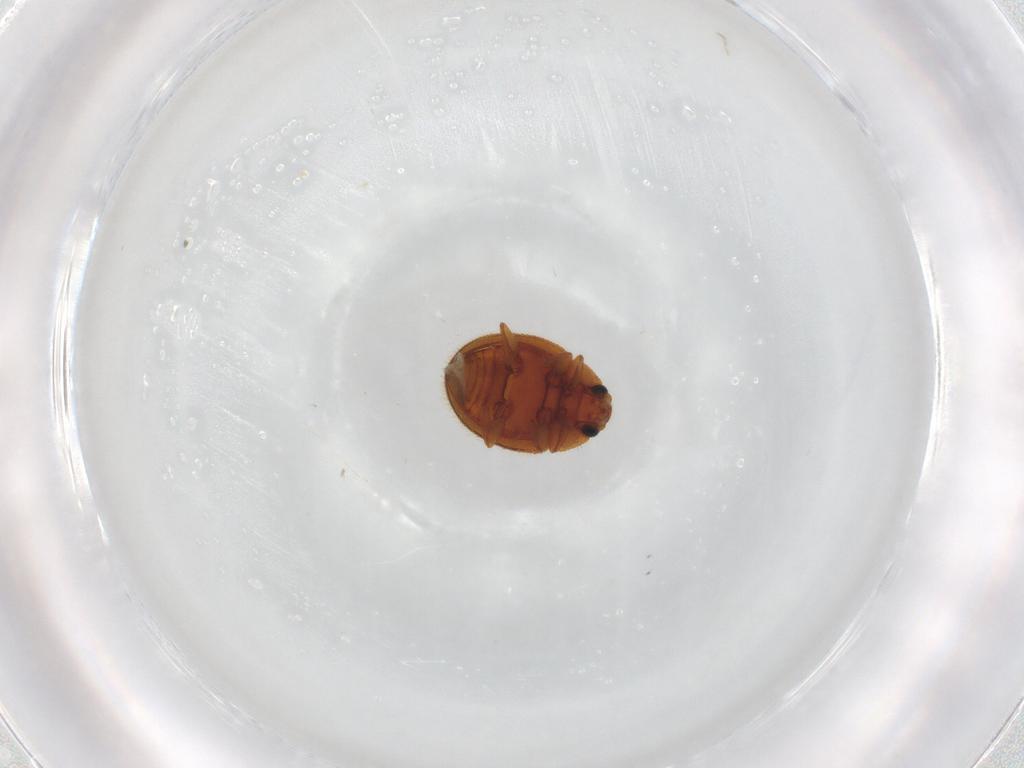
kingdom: Animalia
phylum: Arthropoda
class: Insecta
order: Coleoptera
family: Euxestidae
